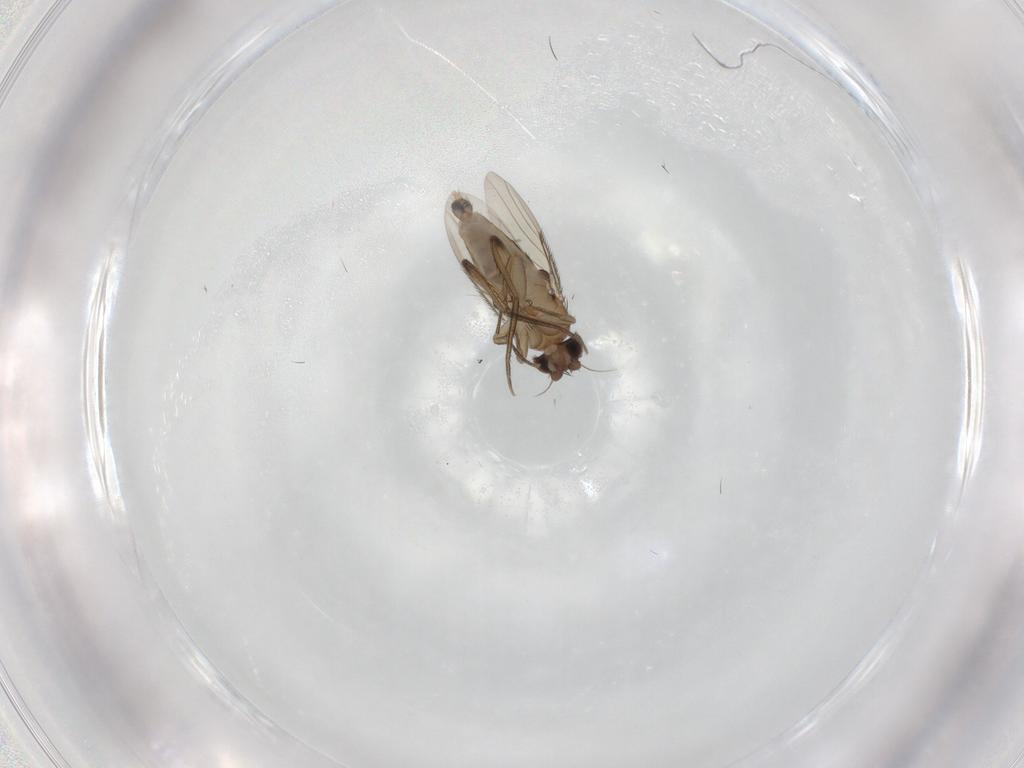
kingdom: Animalia
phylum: Arthropoda
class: Insecta
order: Diptera
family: Phoridae
